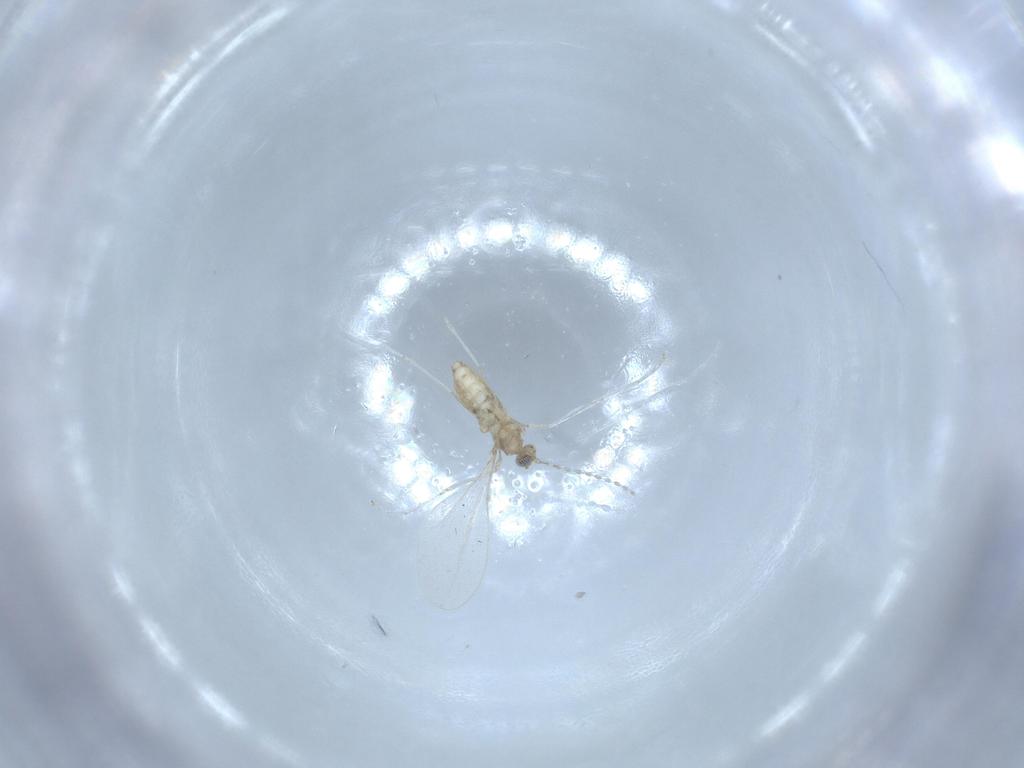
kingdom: Animalia
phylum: Arthropoda
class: Insecta
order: Diptera
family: Cecidomyiidae
